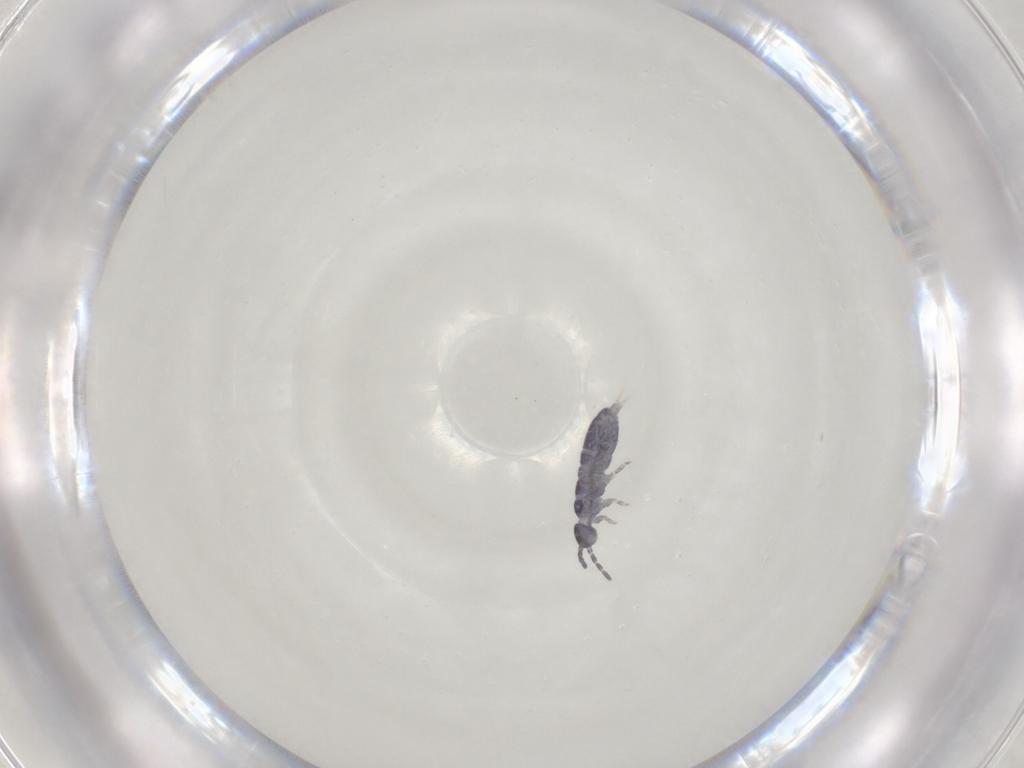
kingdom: Animalia
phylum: Arthropoda
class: Collembola
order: Entomobryomorpha
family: Isotomidae
